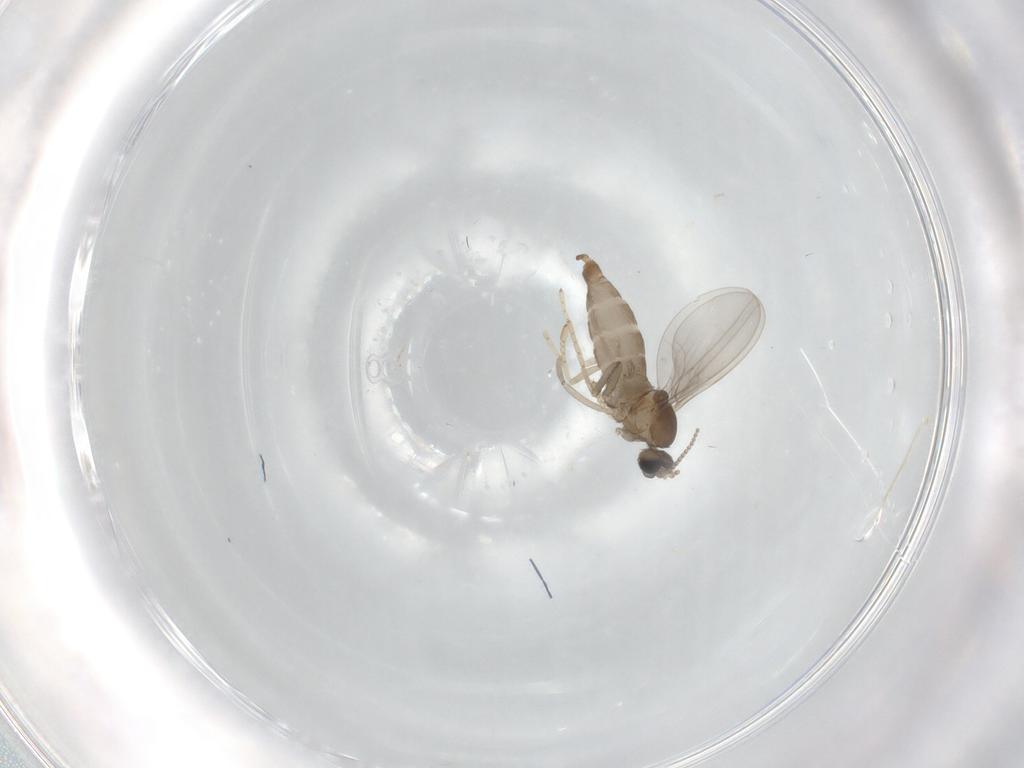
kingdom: Animalia
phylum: Arthropoda
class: Insecta
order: Diptera
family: Cecidomyiidae
